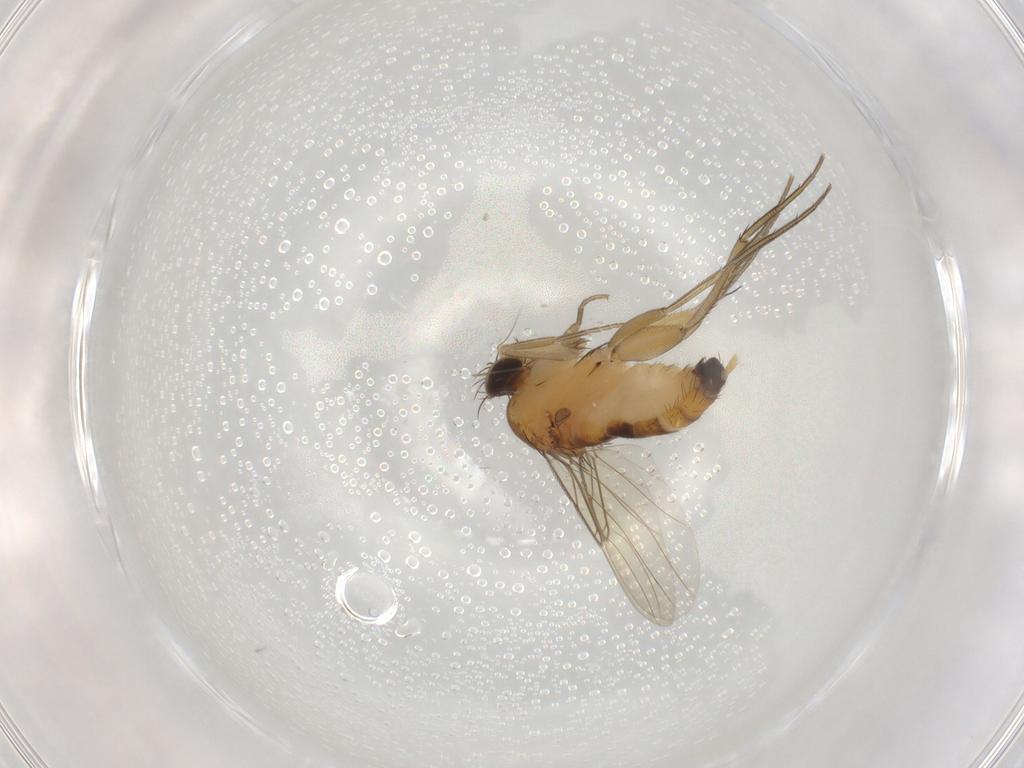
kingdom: Animalia
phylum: Arthropoda
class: Insecta
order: Diptera
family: Phoridae
